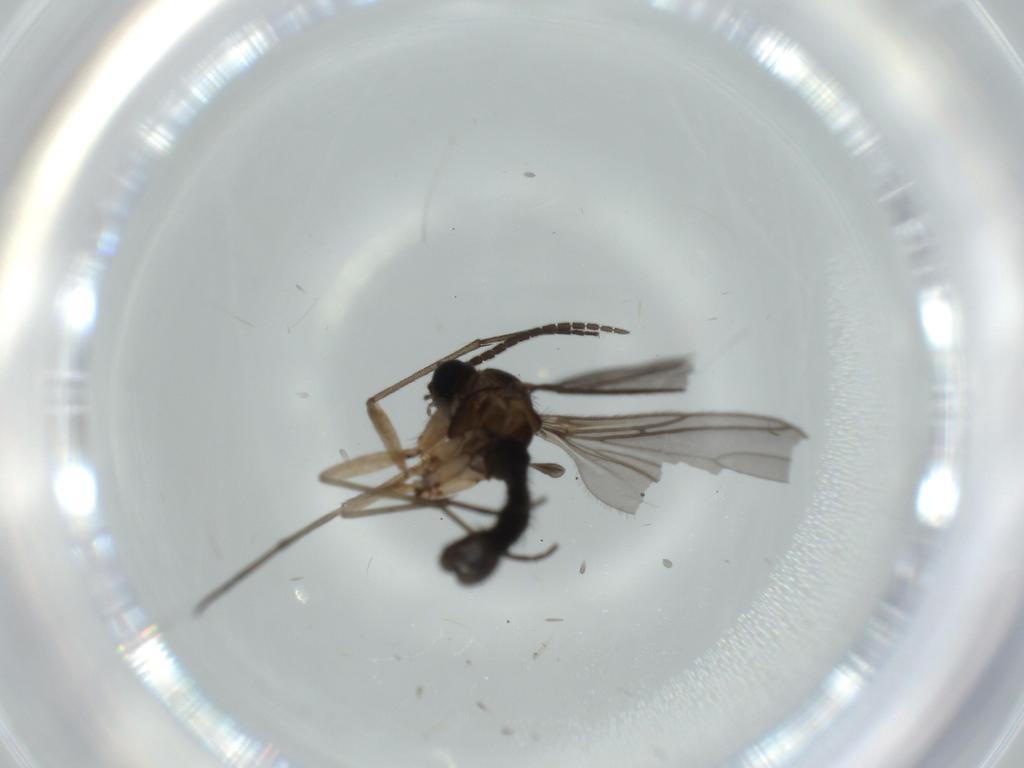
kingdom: Animalia
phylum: Arthropoda
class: Insecta
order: Diptera
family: Sciaridae
